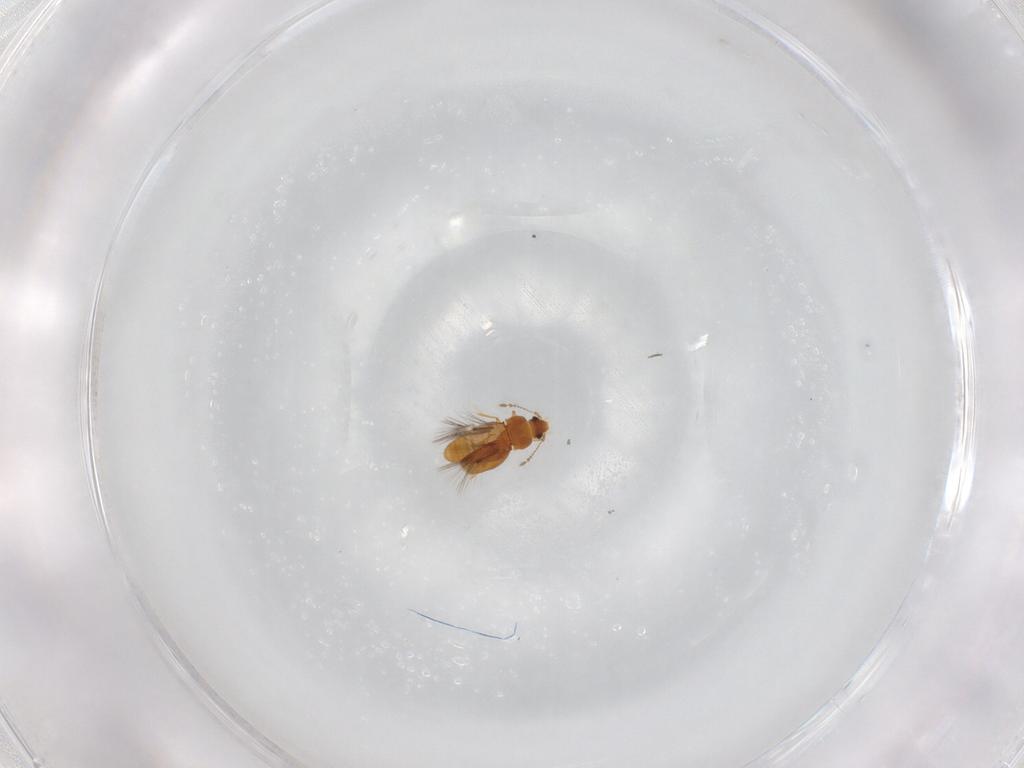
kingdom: Animalia
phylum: Arthropoda
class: Insecta
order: Coleoptera
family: Ptiliidae
